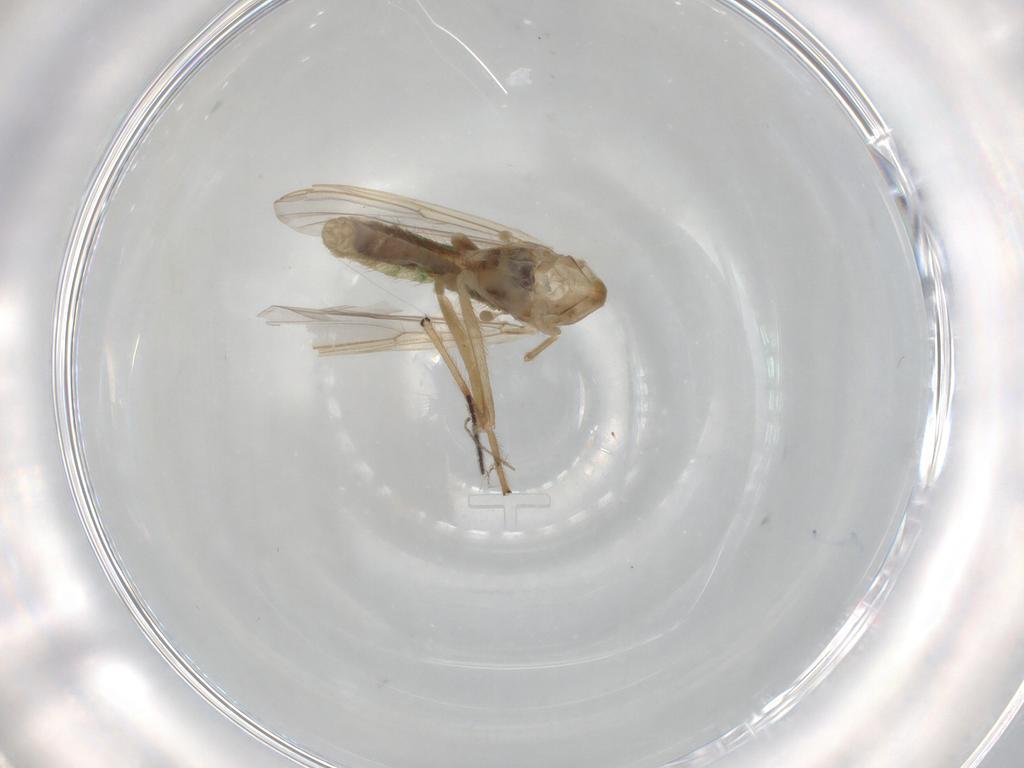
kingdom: Animalia
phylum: Arthropoda
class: Insecta
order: Diptera
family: Chironomidae
